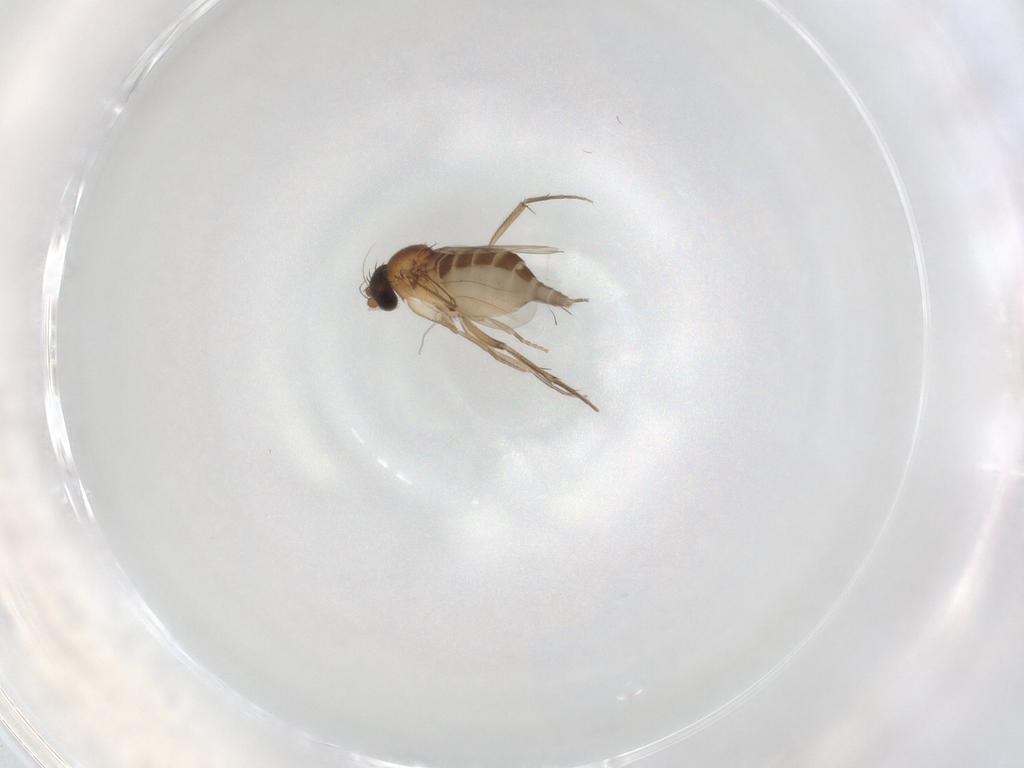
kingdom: Animalia
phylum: Arthropoda
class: Insecta
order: Diptera
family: Phoridae
